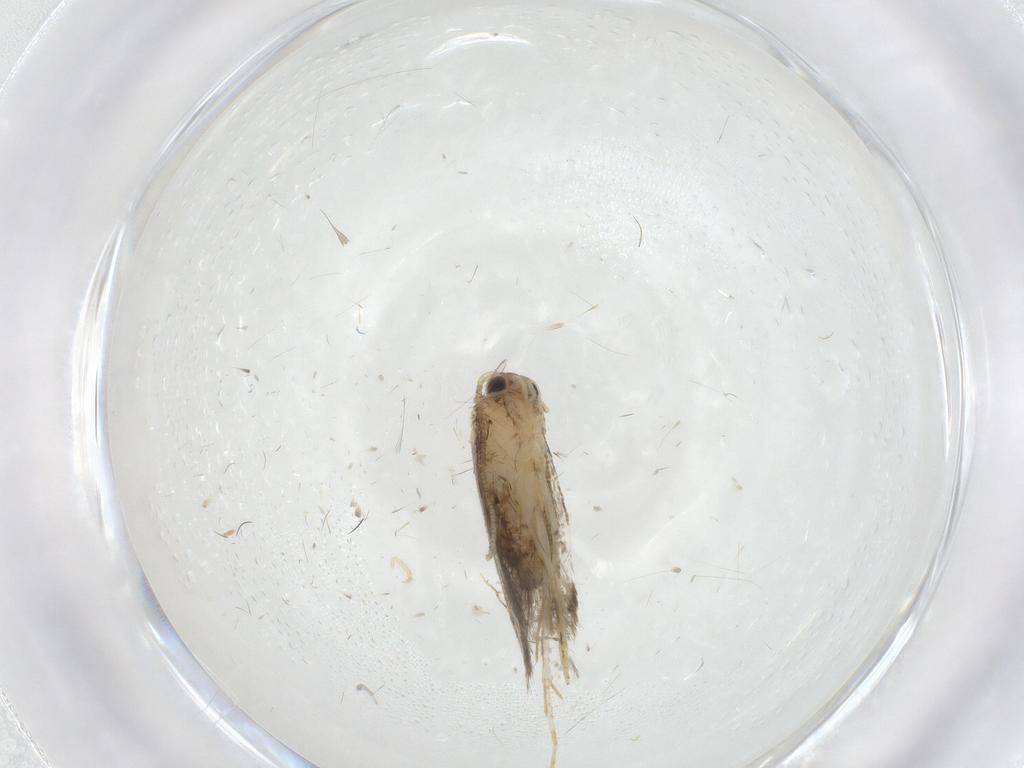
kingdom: Animalia
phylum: Arthropoda
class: Insecta
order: Lepidoptera
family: Tineidae
